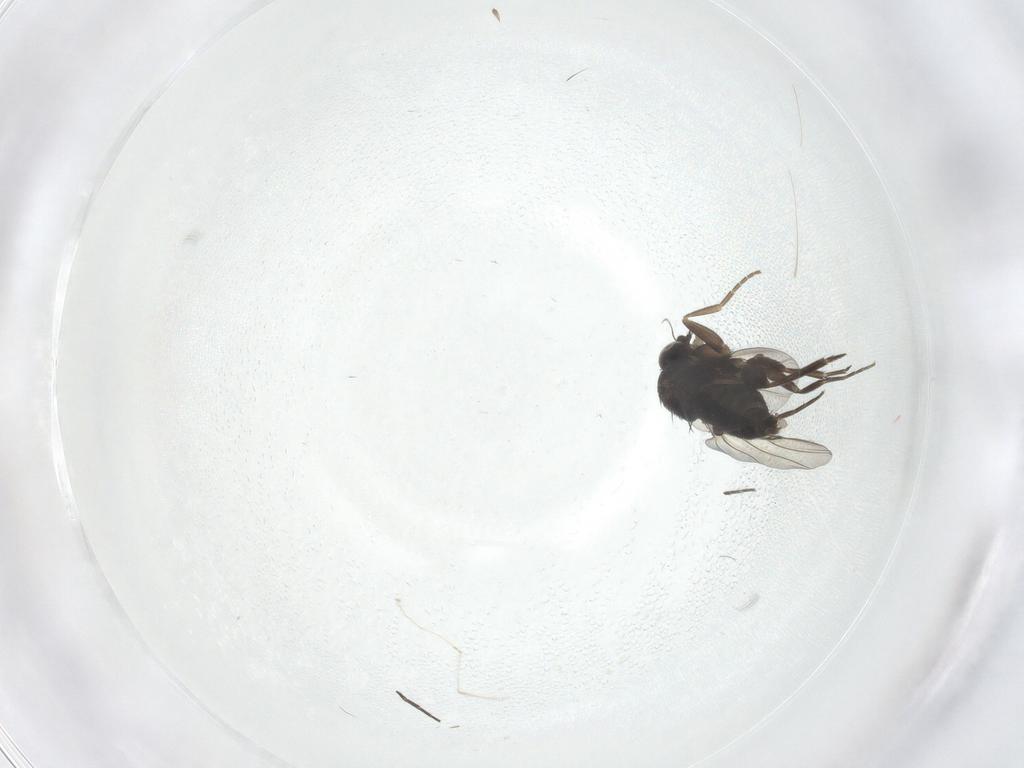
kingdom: Animalia
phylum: Arthropoda
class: Insecta
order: Diptera
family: Phoridae
